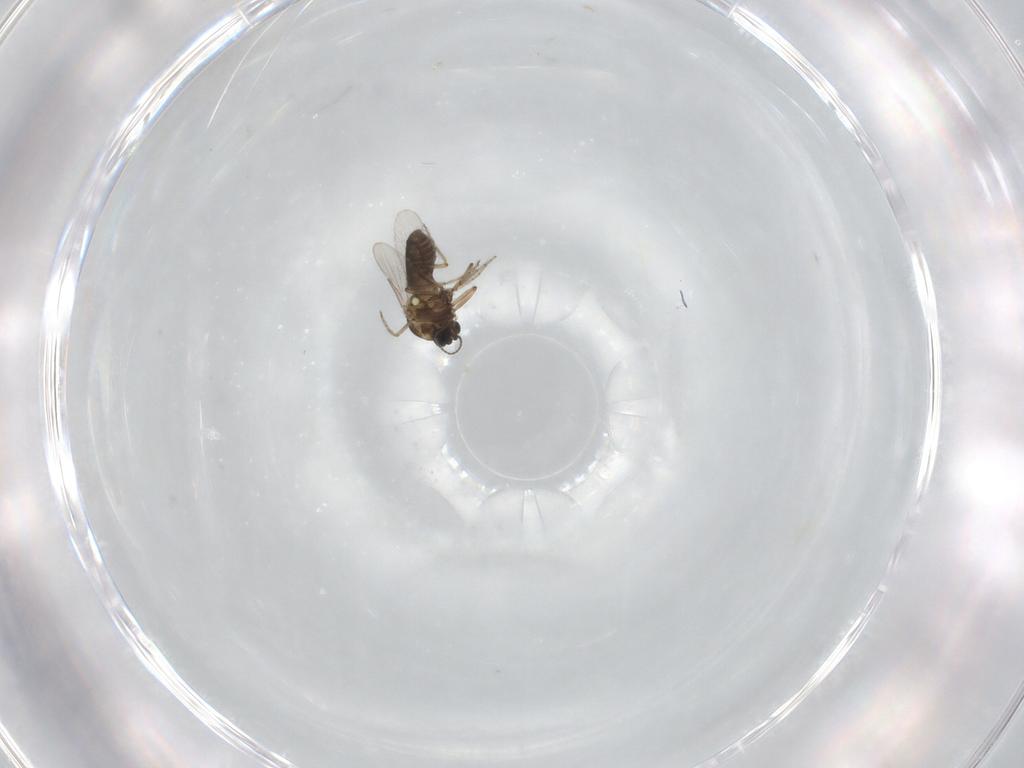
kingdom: Animalia
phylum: Arthropoda
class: Insecta
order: Diptera
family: Ceratopogonidae
